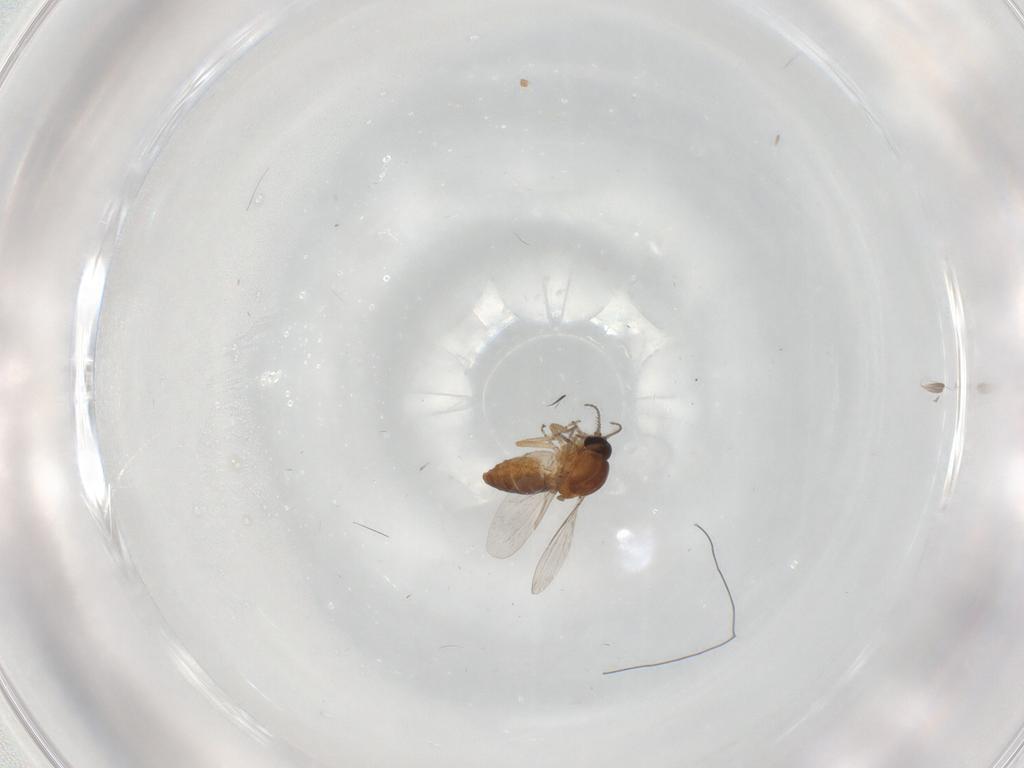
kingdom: Animalia
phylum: Arthropoda
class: Insecta
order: Diptera
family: Ceratopogonidae
